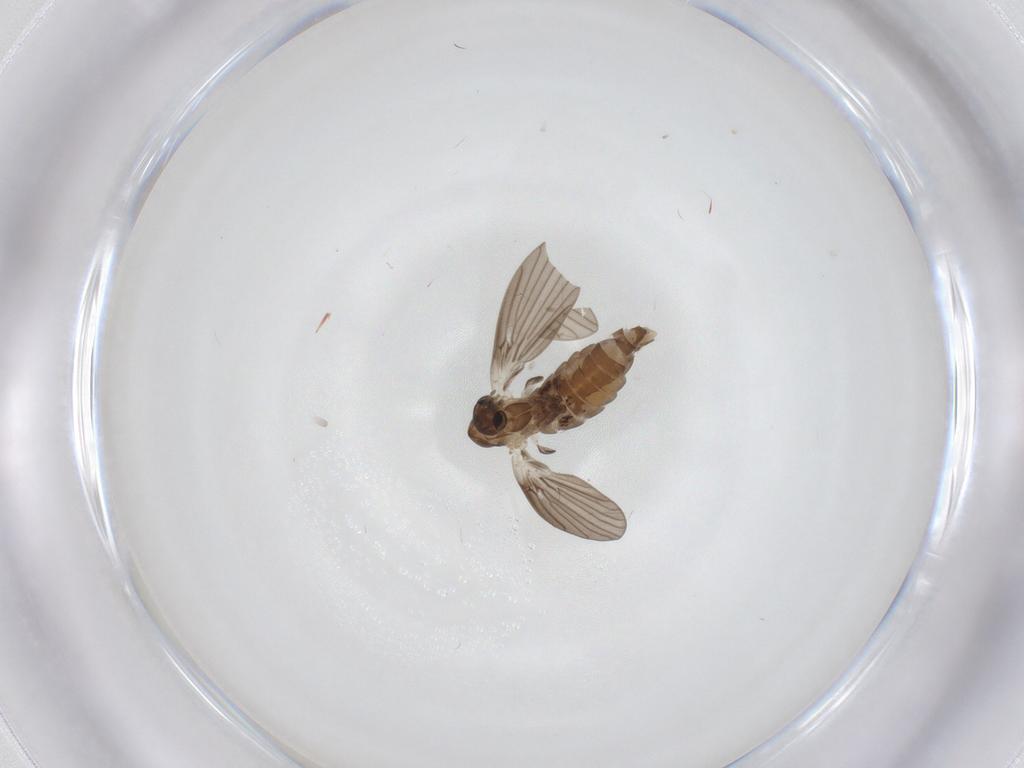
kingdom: Animalia
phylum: Arthropoda
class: Insecta
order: Diptera
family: Psychodidae
